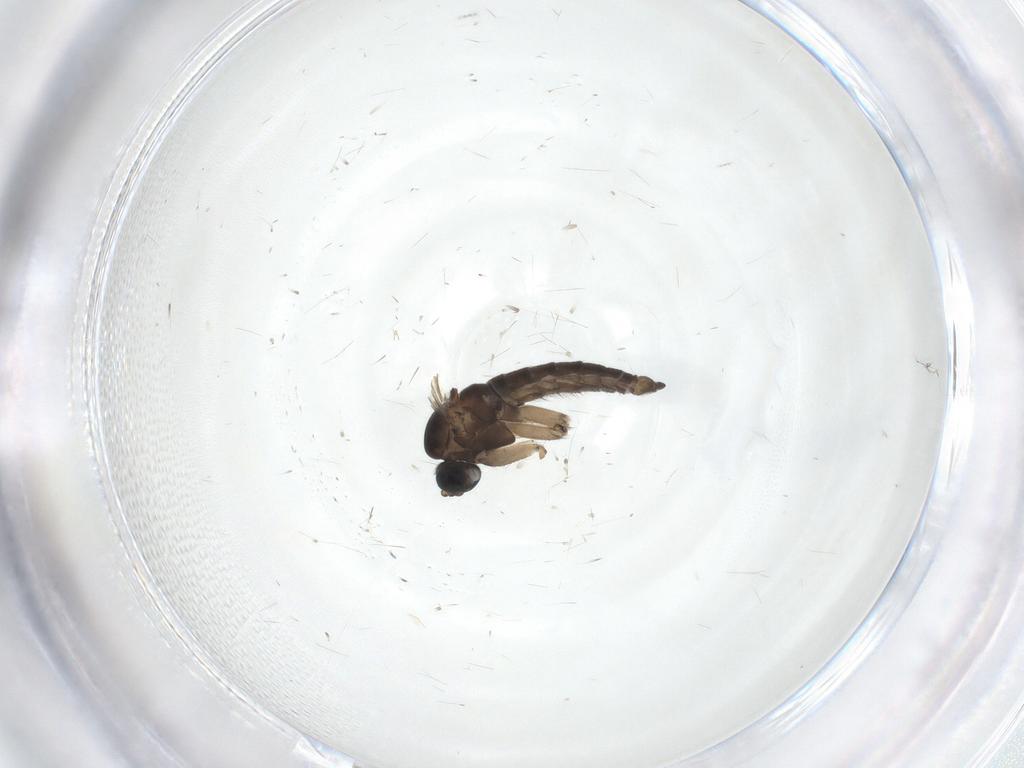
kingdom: Animalia
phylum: Arthropoda
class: Insecta
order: Diptera
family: Sciaridae
